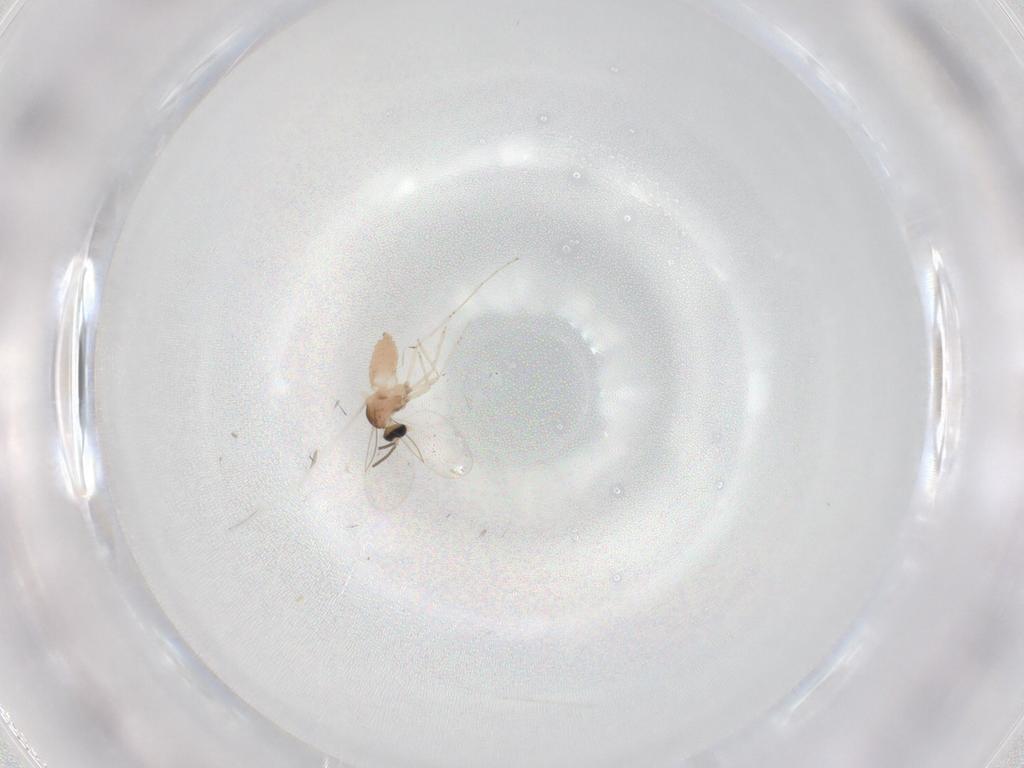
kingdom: Animalia
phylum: Arthropoda
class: Insecta
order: Diptera
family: Cecidomyiidae
